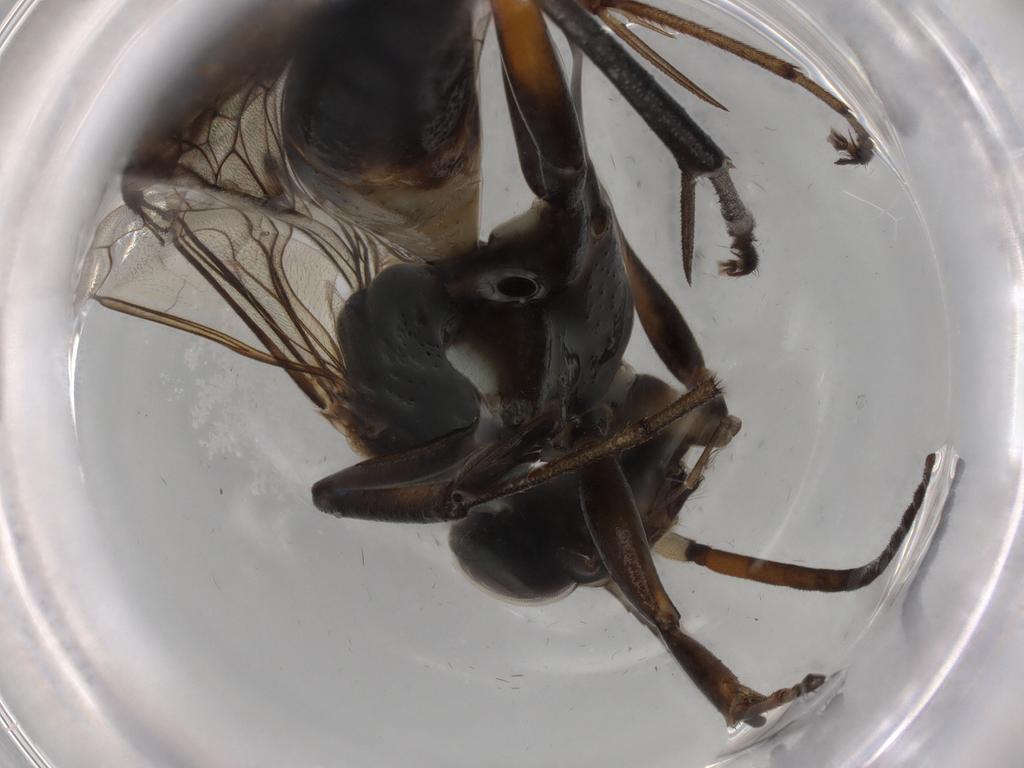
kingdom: Animalia
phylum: Arthropoda
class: Insecta
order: Hymenoptera
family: Pompilidae
